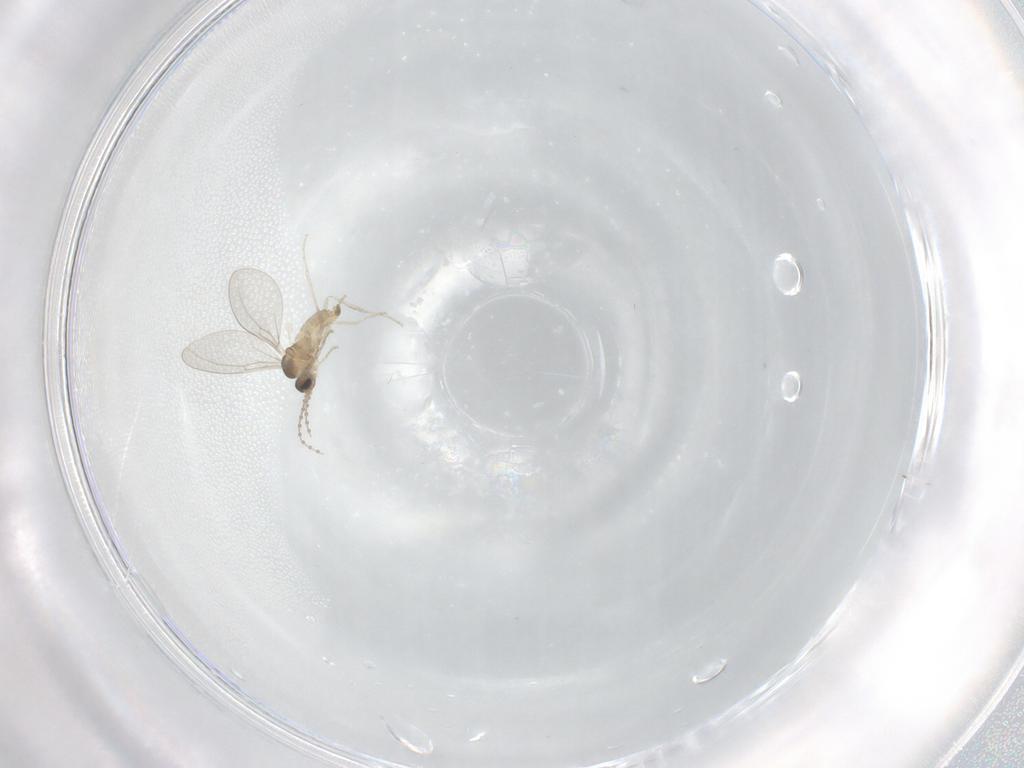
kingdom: Animalia
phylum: Arthropoda
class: Insecta
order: Diptera
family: Cecidomyiidae
